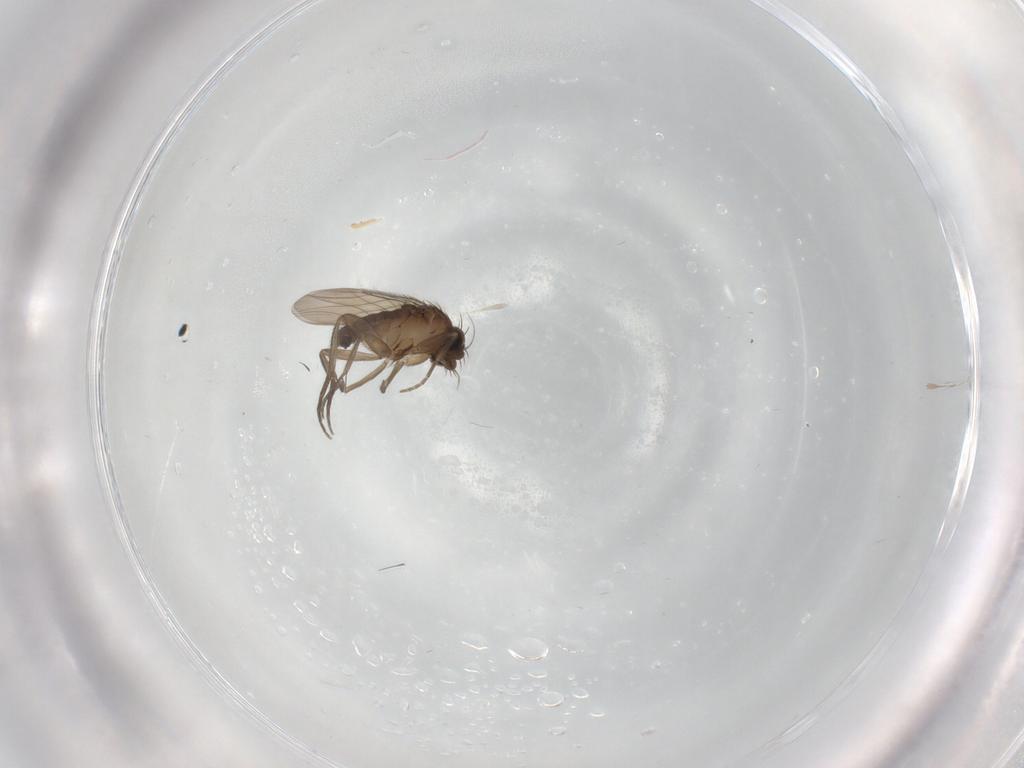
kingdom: Animalia
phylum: Arthropoda
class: Insecta
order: Diptera
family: Phoridae
